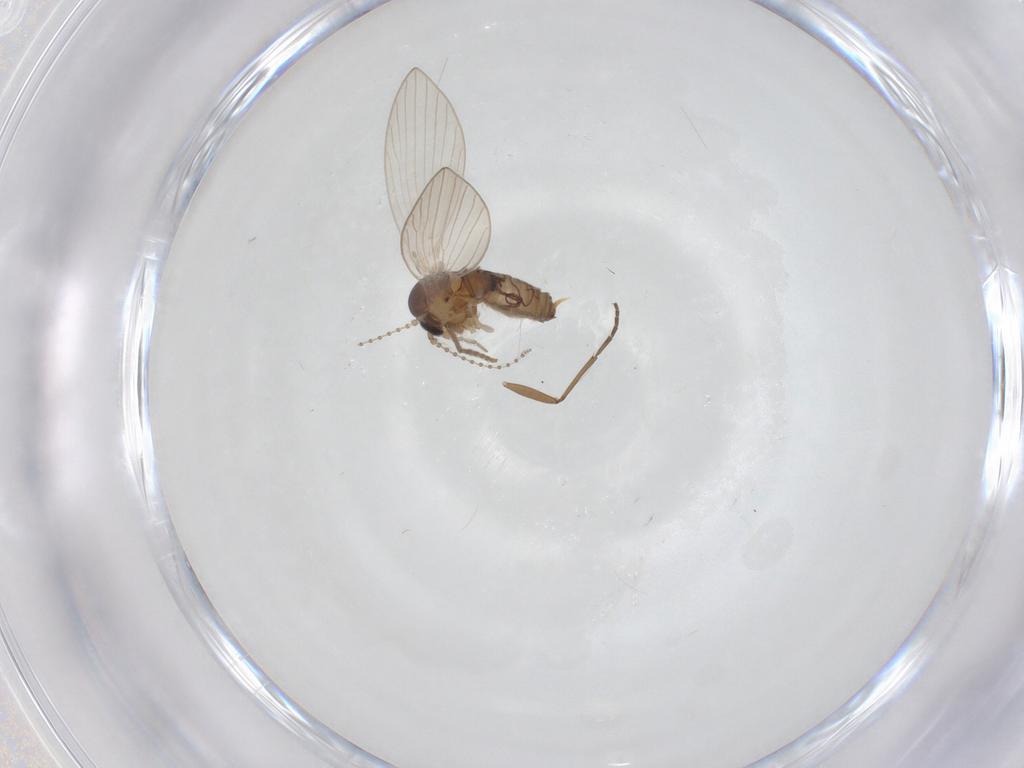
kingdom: Animalia
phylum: Arthropoda
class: Insecta
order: Diptera
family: Psychodidae
